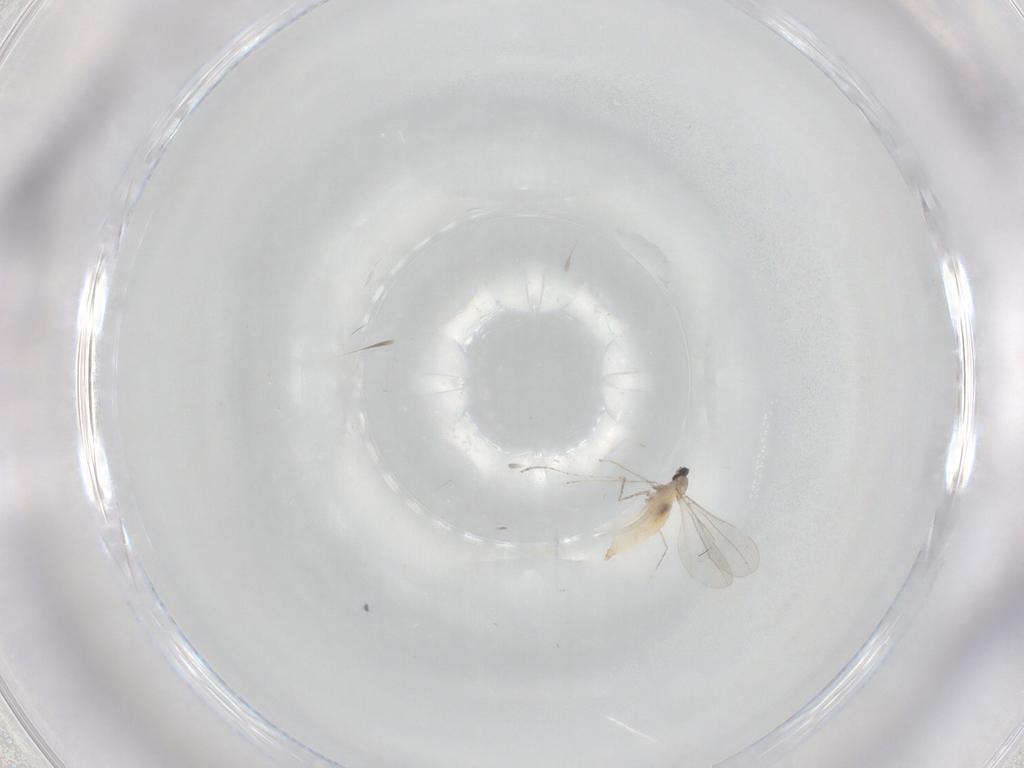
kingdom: Animalia
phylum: Arthropoda
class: Insecta
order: Diptera
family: Cecidomyiidae
